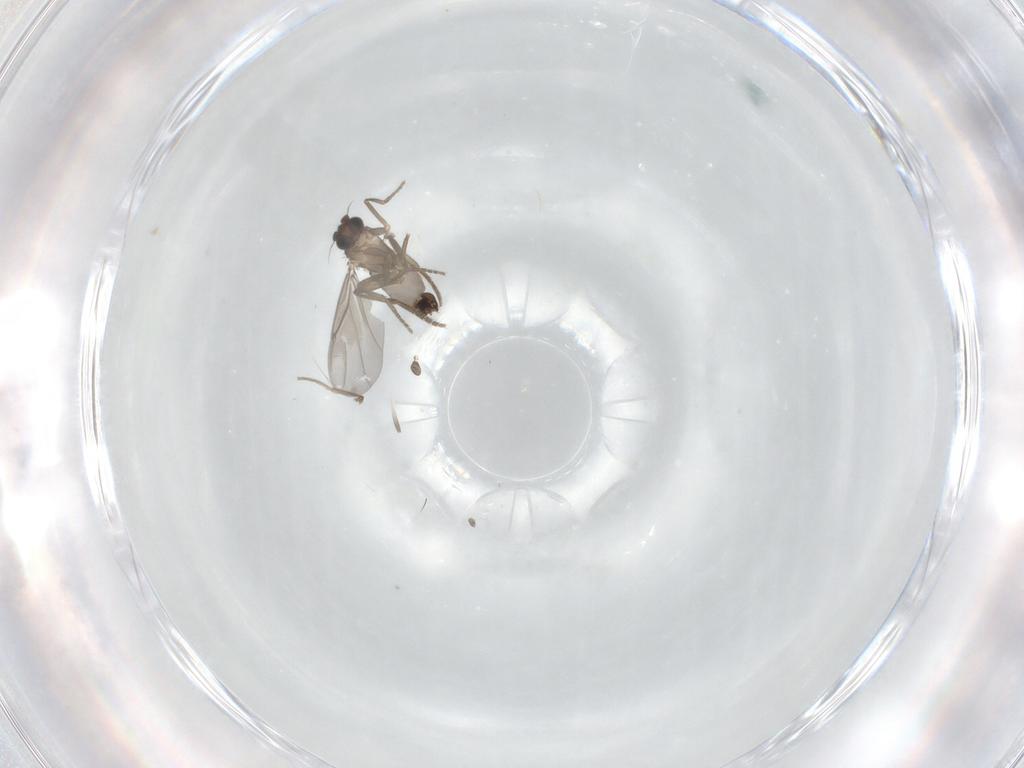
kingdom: Animalia
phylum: Arthropoda
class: Insecta
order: Diptera
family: Phoridae
